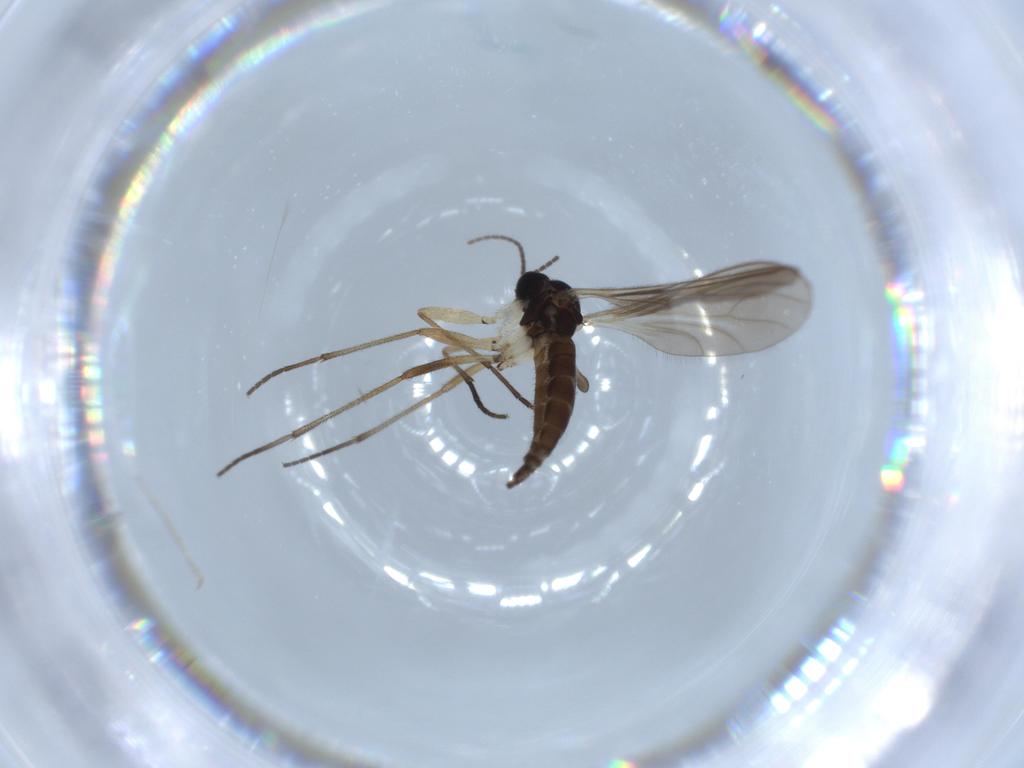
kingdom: Animalia
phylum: Arthropoda
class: Insecta
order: Diptera
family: Sciaridae
